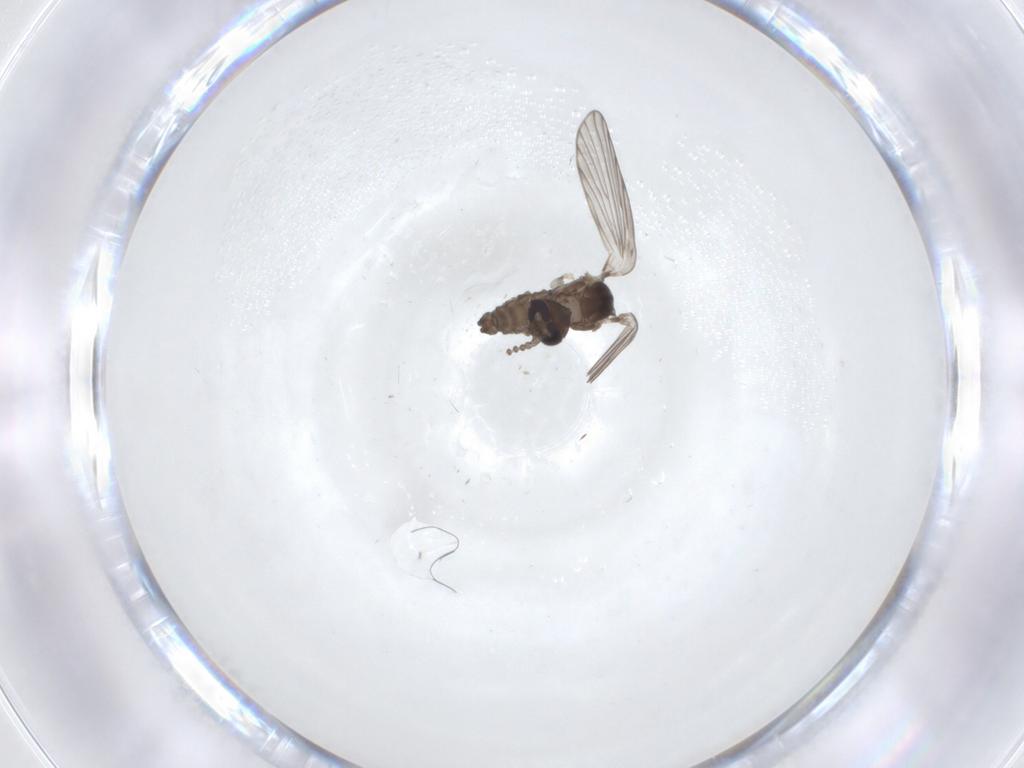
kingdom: Animalia
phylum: Arthropoda
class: Insecta
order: Diptera
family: Psychodidae
